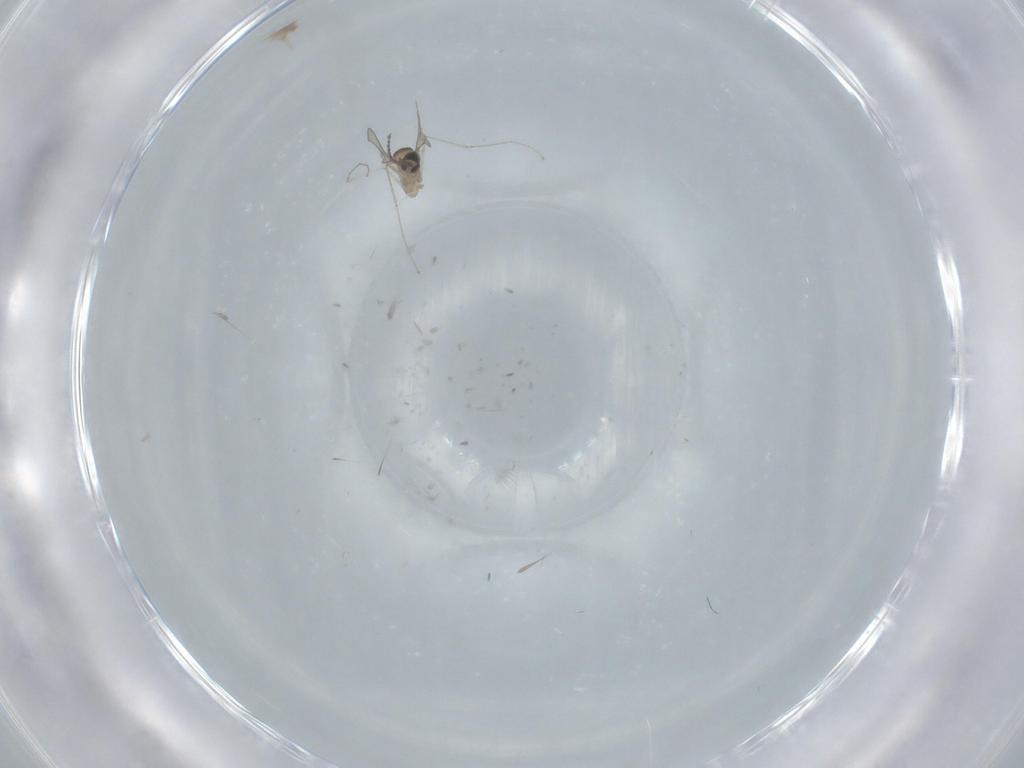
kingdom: Animalia
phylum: Arthropoda
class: Insecta
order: Diptera
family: Cecidomyiidae
